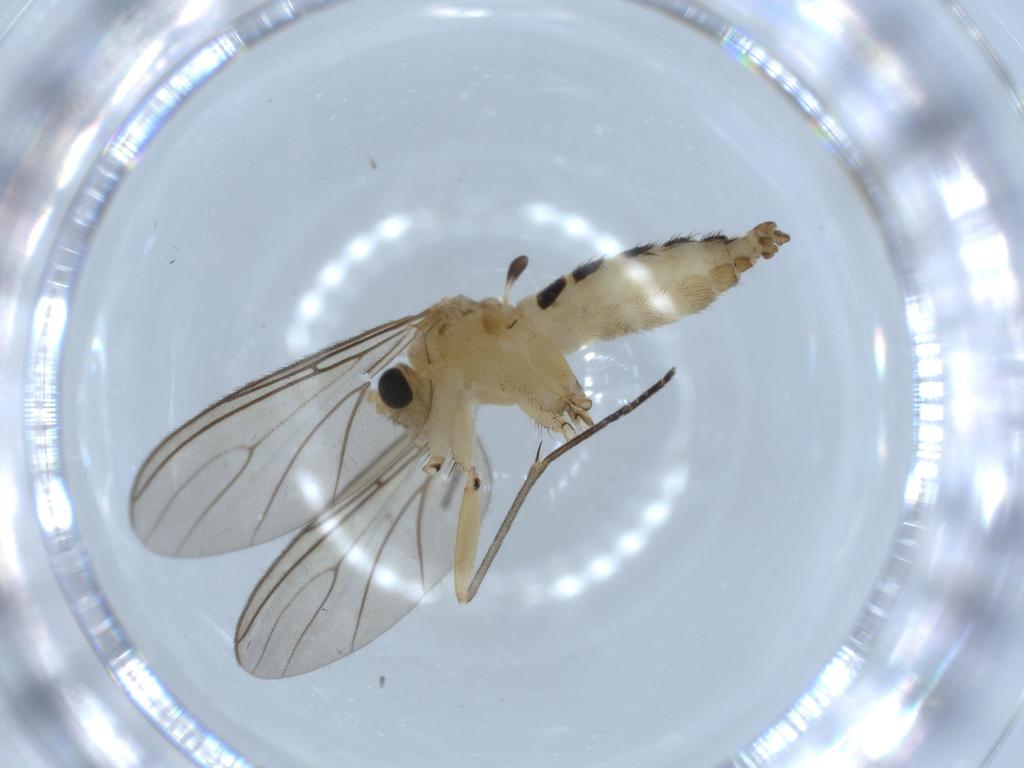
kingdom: Animalia
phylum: Arthropoda
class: Insecta
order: Diptera
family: Sciaridae
